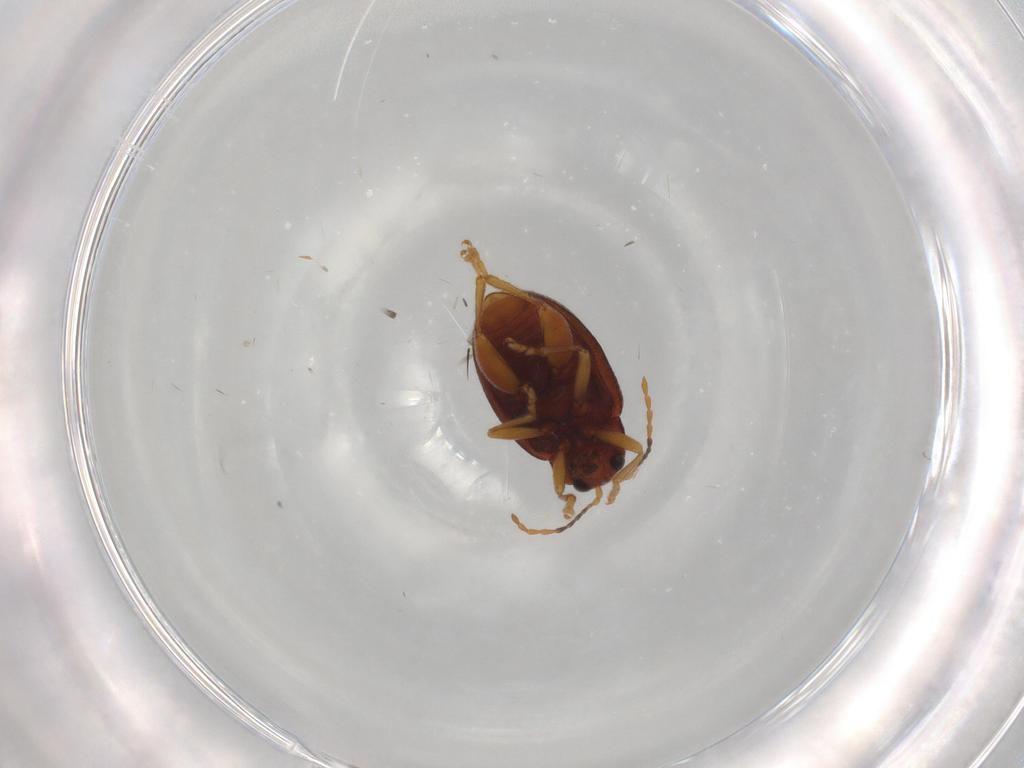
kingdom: Animalia
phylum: Arthropoda
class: Insecta
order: Coleoptera
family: Chrysomelidae
